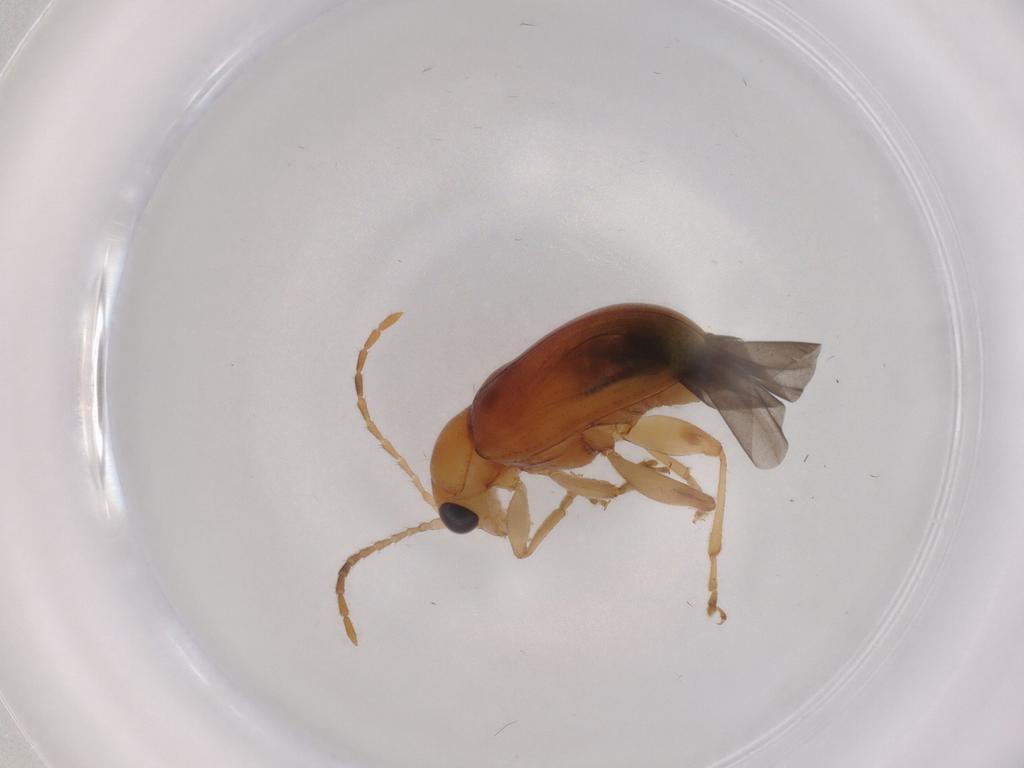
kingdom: Animalia
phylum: Arthropoda
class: Insecta
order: Coleoptera
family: Chrysomelidae
